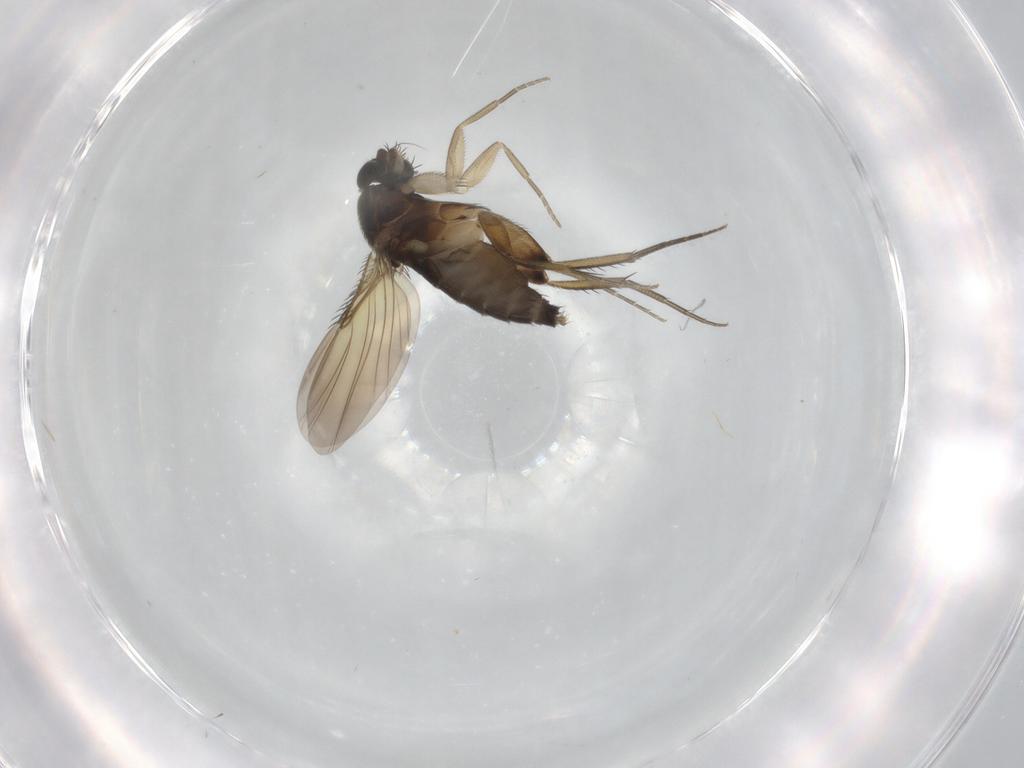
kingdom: Animalia
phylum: Arthropoda
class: Insecta
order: Diptera
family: Phoridae
